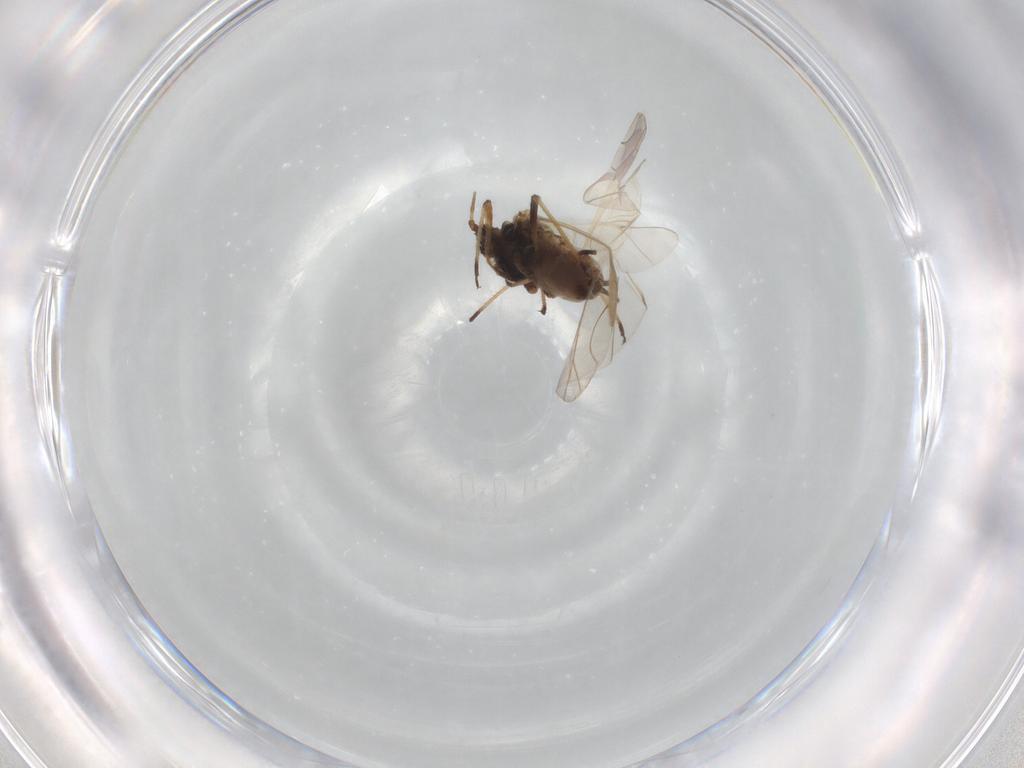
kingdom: Animalia
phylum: Arthropoda
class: Insecta
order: Hemiptera
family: Aphididae
